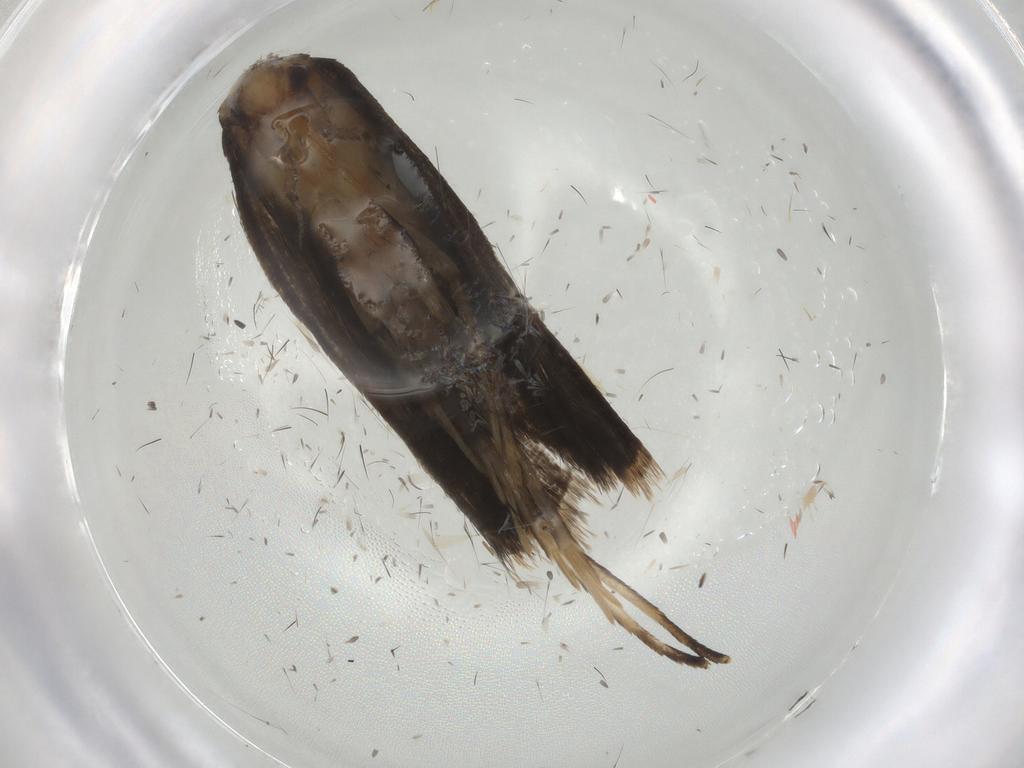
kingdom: Animalia
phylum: Arthropoda
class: Insecta
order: Lepidoptera
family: Depressariidae
